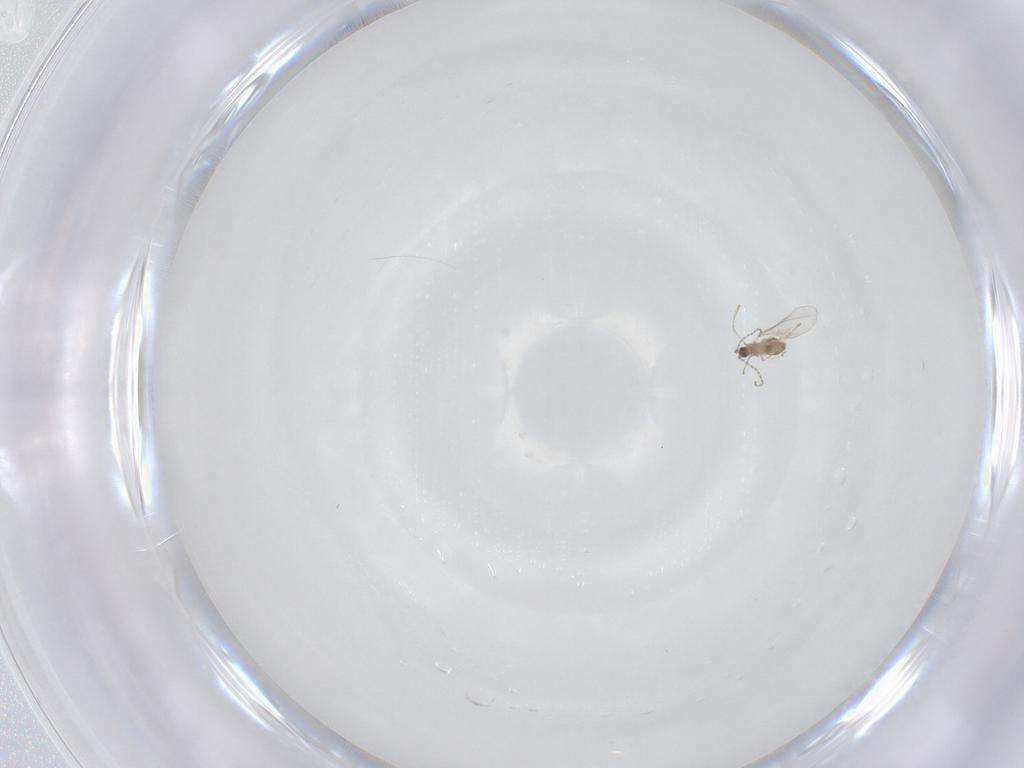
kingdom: Animalia
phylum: Arthropoda
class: Insecta
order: Diptera
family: Cecidomyiidae
